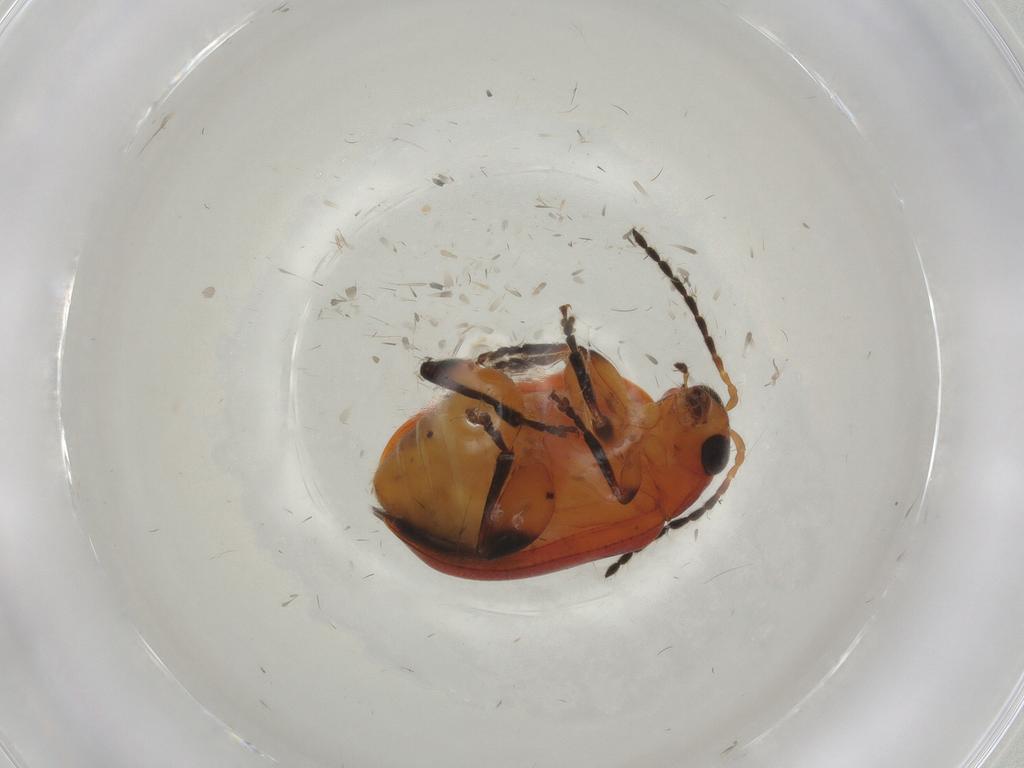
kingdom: Animalia
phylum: Arthropoda
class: Insecta
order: Coleoptera
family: Chrysomelidae
